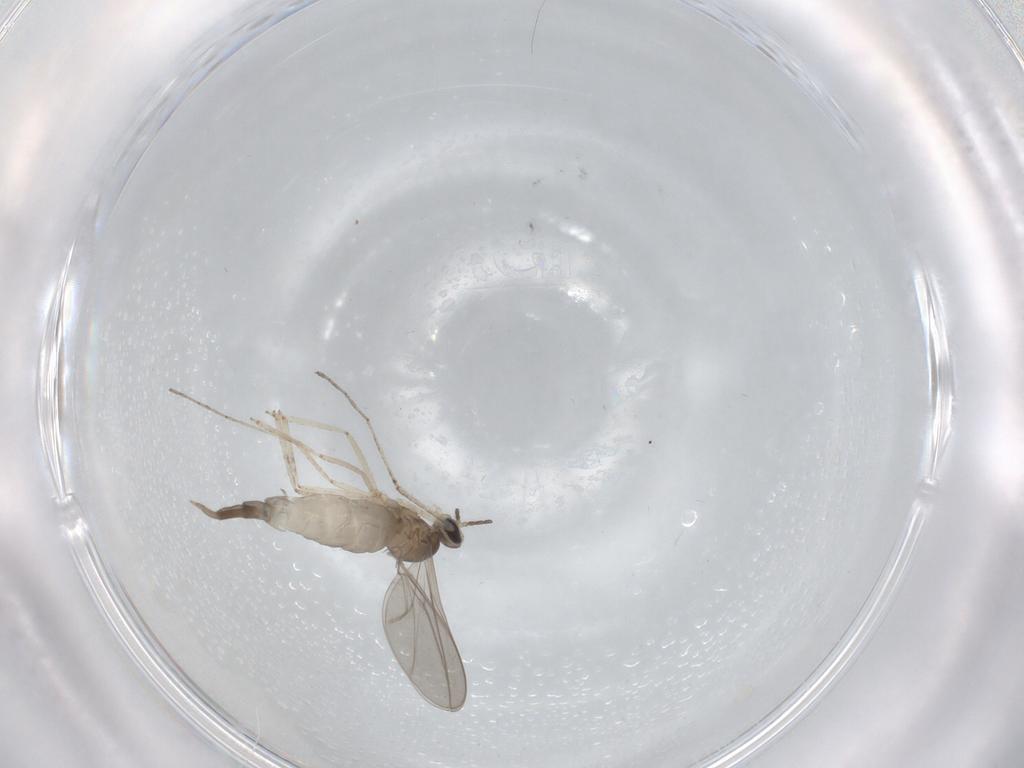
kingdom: Animalia
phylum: Arthropoda
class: Insecta
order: Diptera
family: Cecidomyiidae
